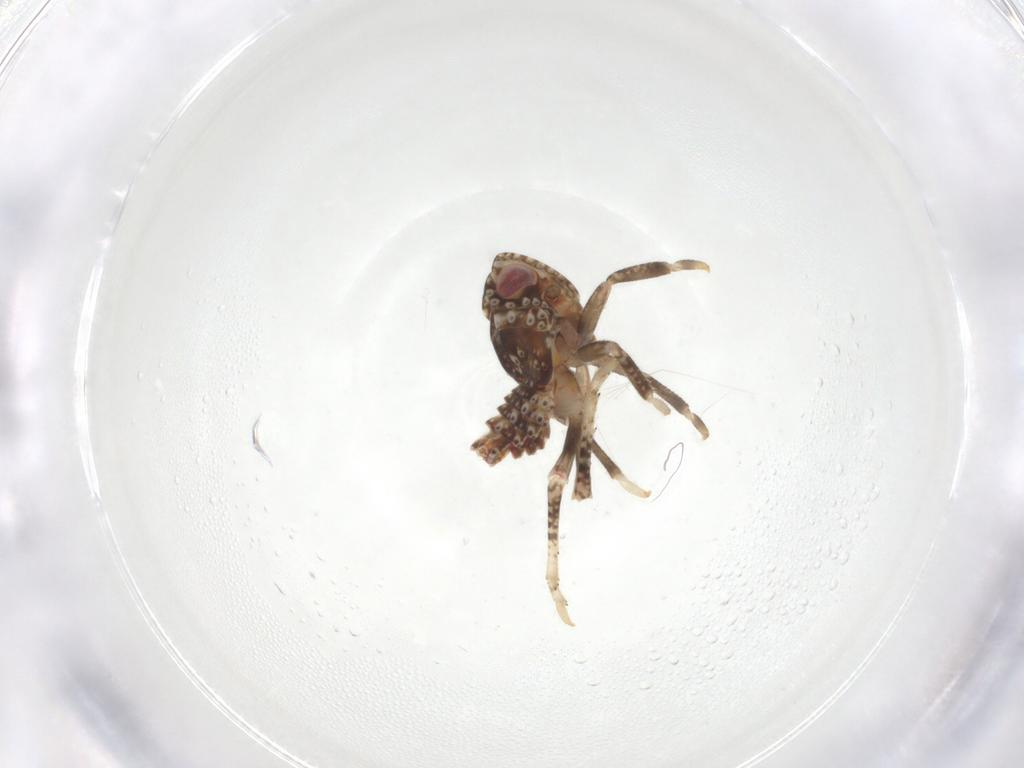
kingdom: Animalia
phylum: Arthropoda
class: Insecta
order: Hemiptera
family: Tropiduchidae
